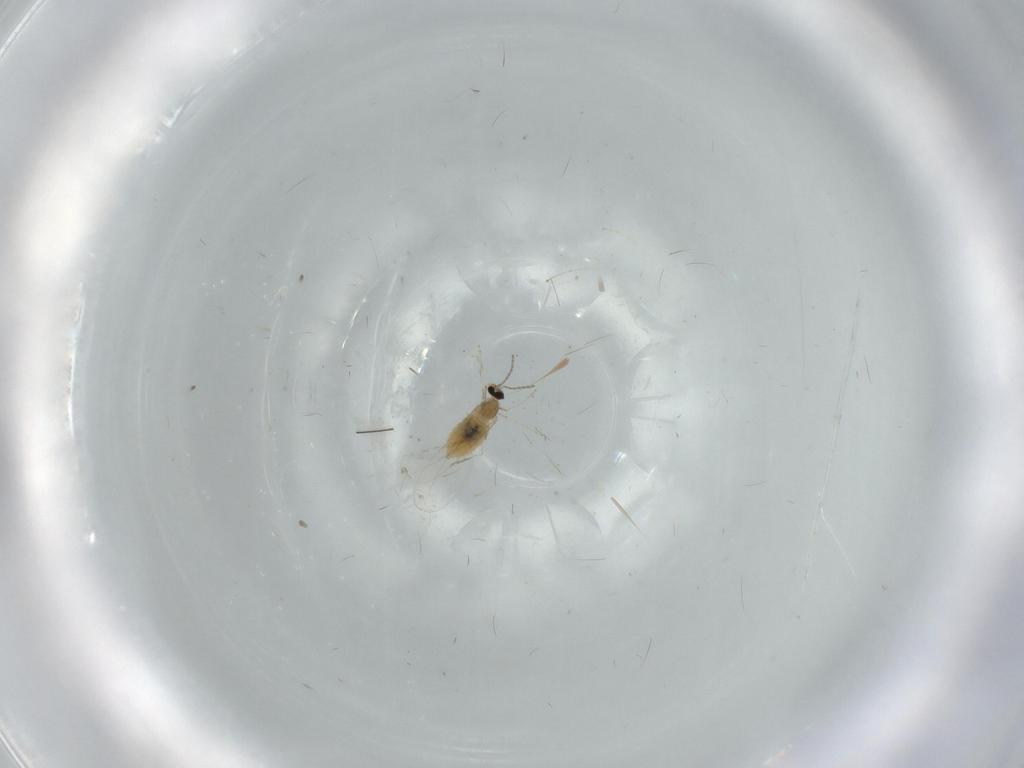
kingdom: Animalia
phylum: Arthropoda
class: Insecta
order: Diptera
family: Cecidomyiidae
